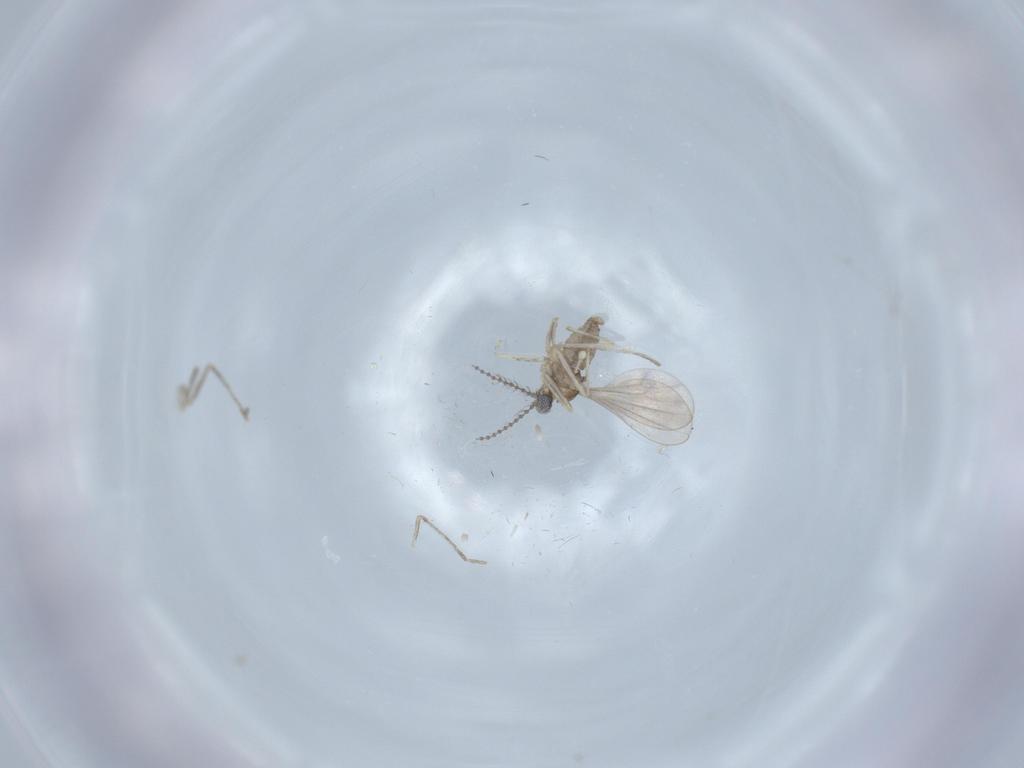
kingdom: Animalia
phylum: Arthropoda
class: Insecta
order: Diptera
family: Cecidomyiidae
